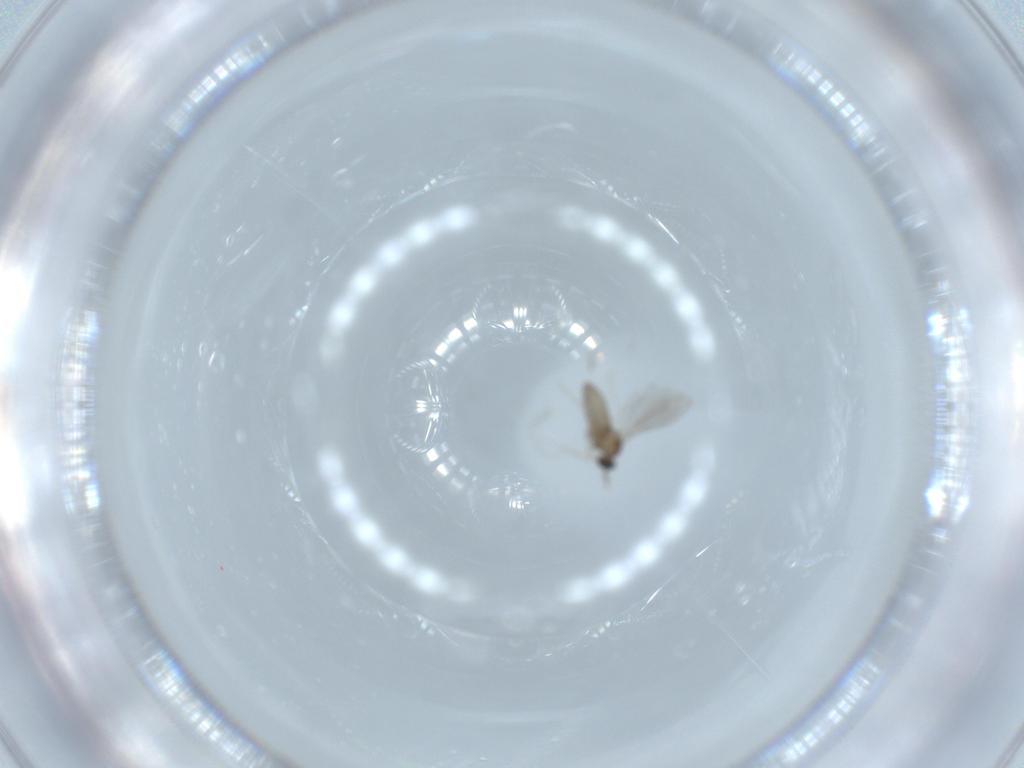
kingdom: Animalia
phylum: Arthropoda
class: Insecta
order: Diptera
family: Cecidomyiidae
